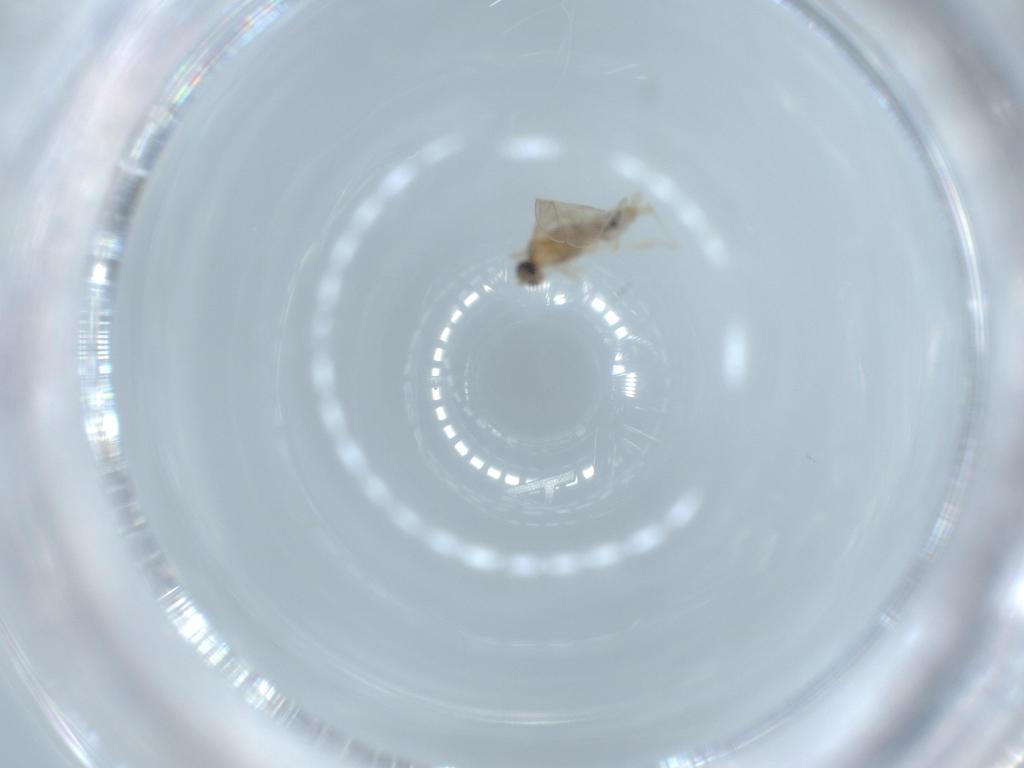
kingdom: Animalia
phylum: Arthropoda
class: Insecta
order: Diptera
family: Cecidomyiidae
